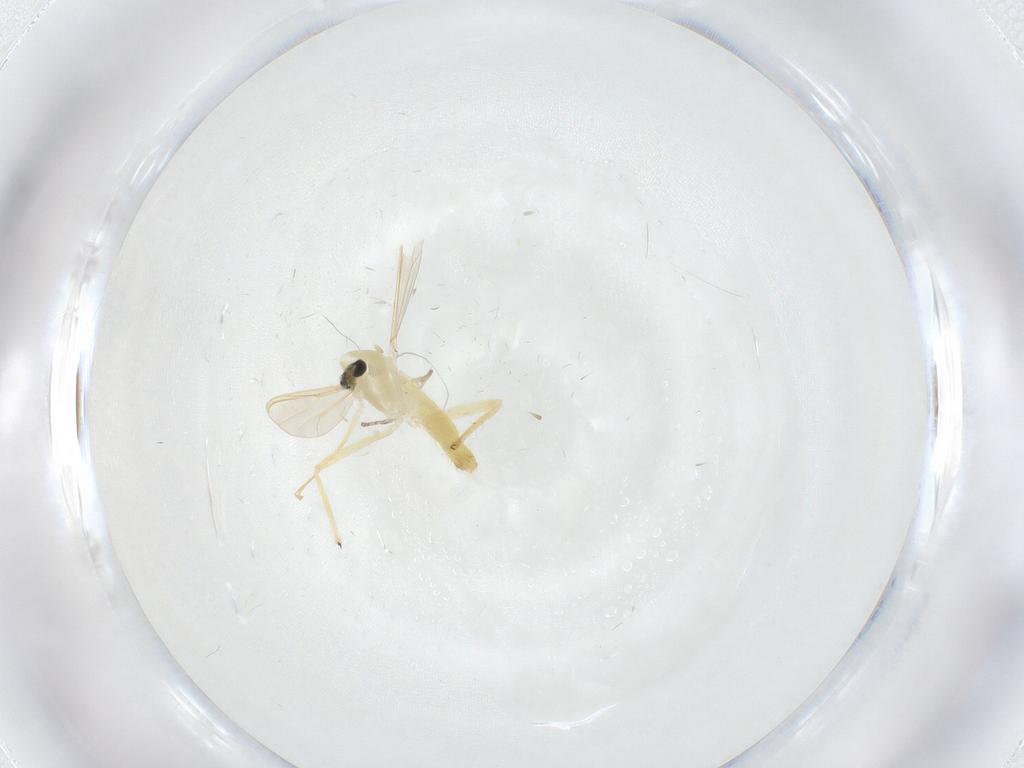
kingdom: Animalia
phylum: Arthropoda
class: Insecta
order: Diptera
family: Chironomidae
